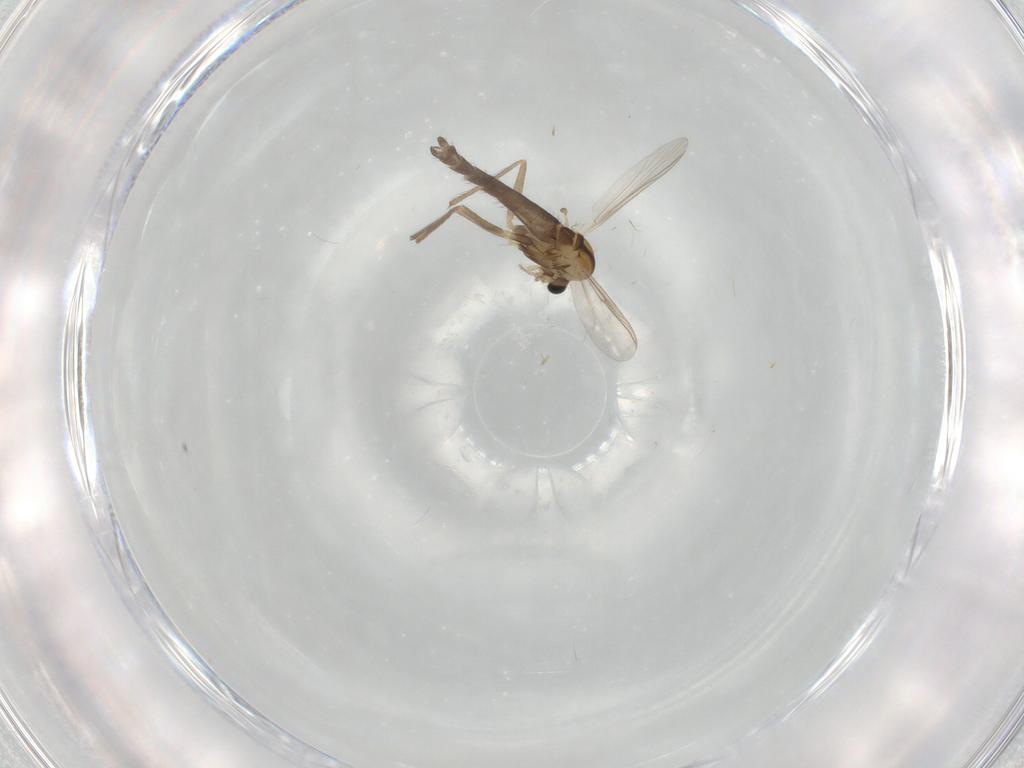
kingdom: Animalia
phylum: Arthropoda
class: Insecta
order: Diptera
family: Chironomidae
